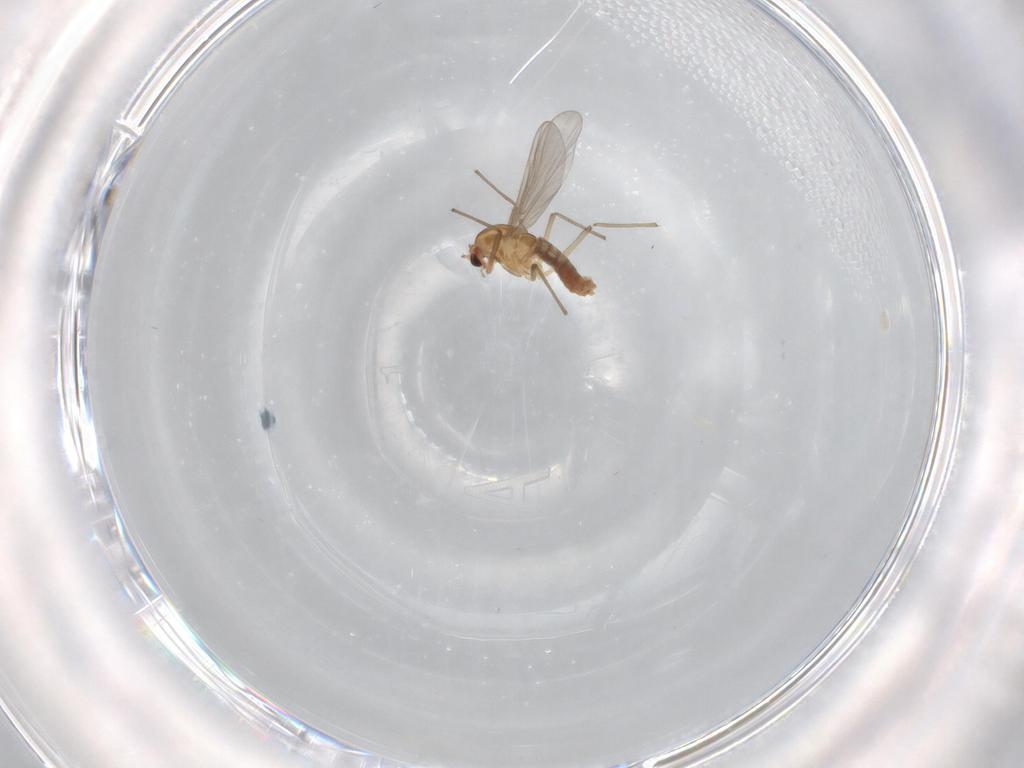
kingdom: Animalia
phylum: Arthropoda
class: Insecta
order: Diptera
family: Chironomidae
